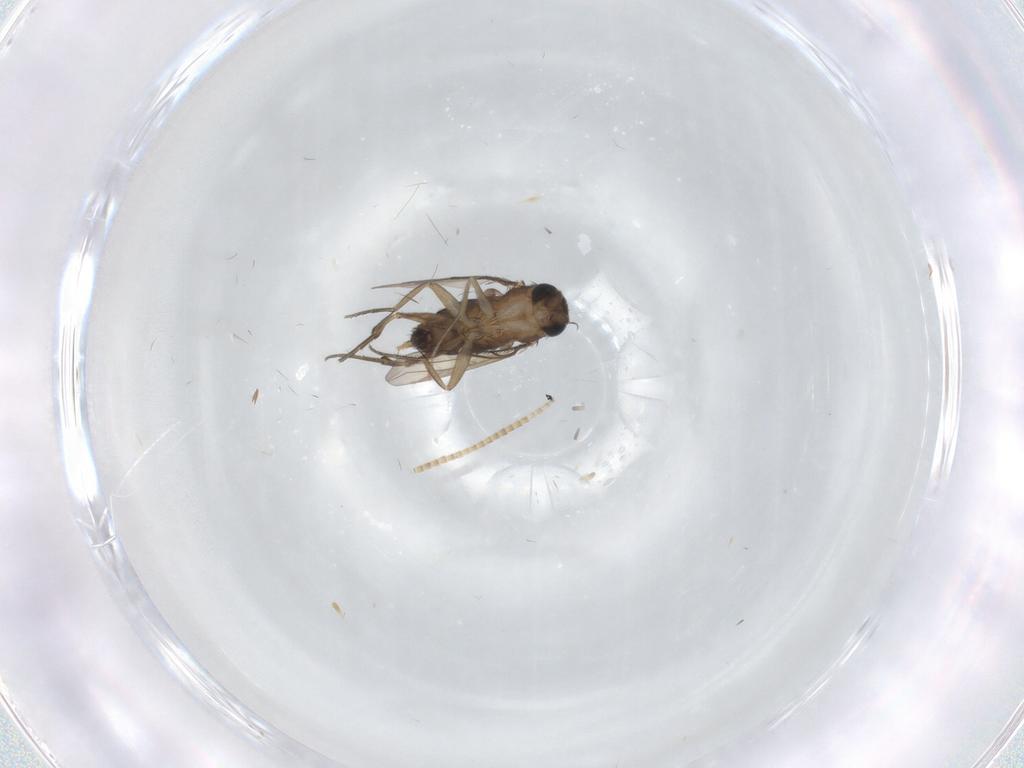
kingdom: Animalia
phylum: Arthropoda
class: Insecta
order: Diptera
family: Phoridae
